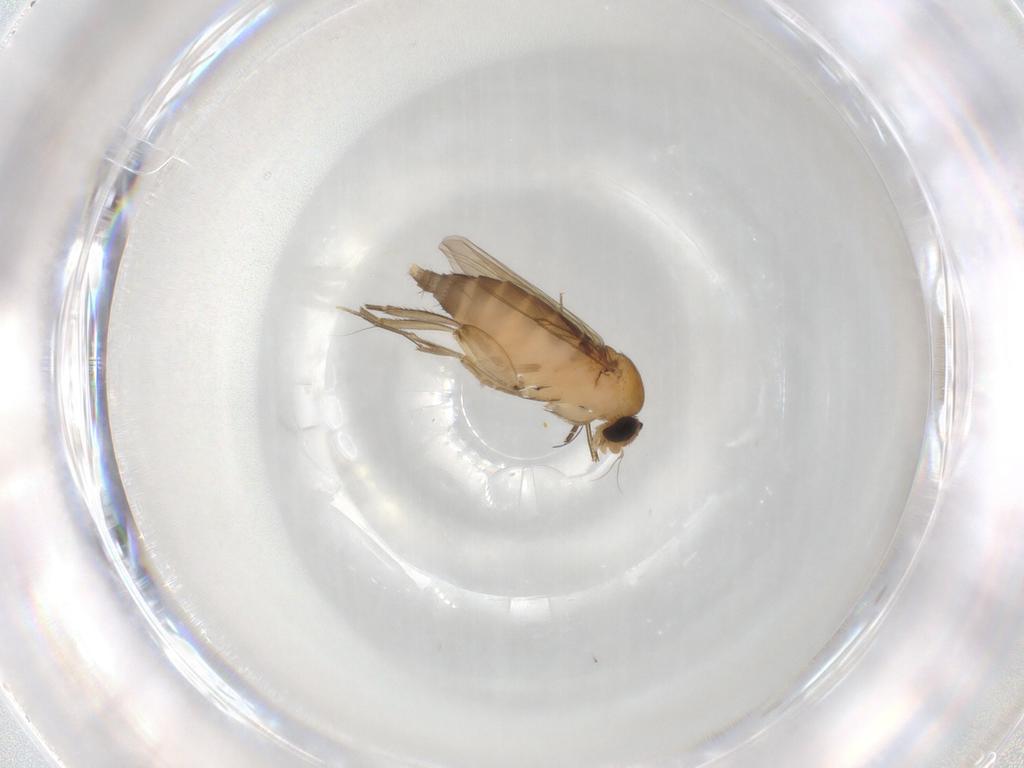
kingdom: Animalia
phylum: Arthropoda
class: Insecta
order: Diptera
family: Phoridae
